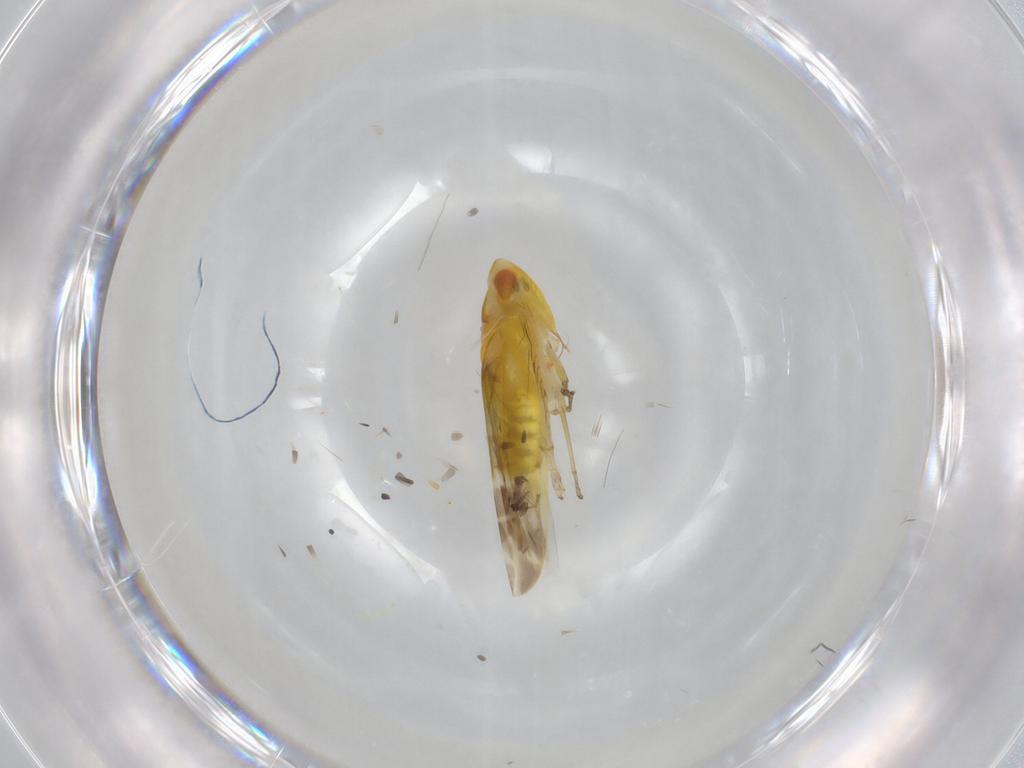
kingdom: Animalia
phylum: Arthropoda
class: Insecta
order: Hemiptera
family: Cicadellidae
